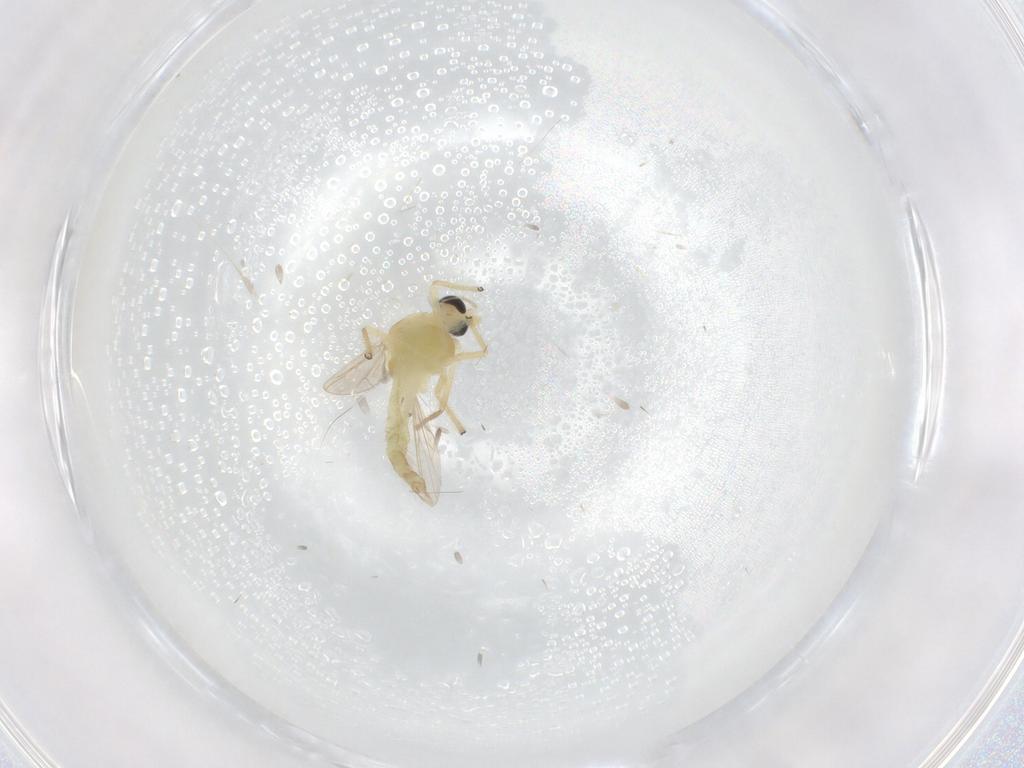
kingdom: Animalia
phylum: Arthropoda
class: Insecta
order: Diptera
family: Chironomidae
